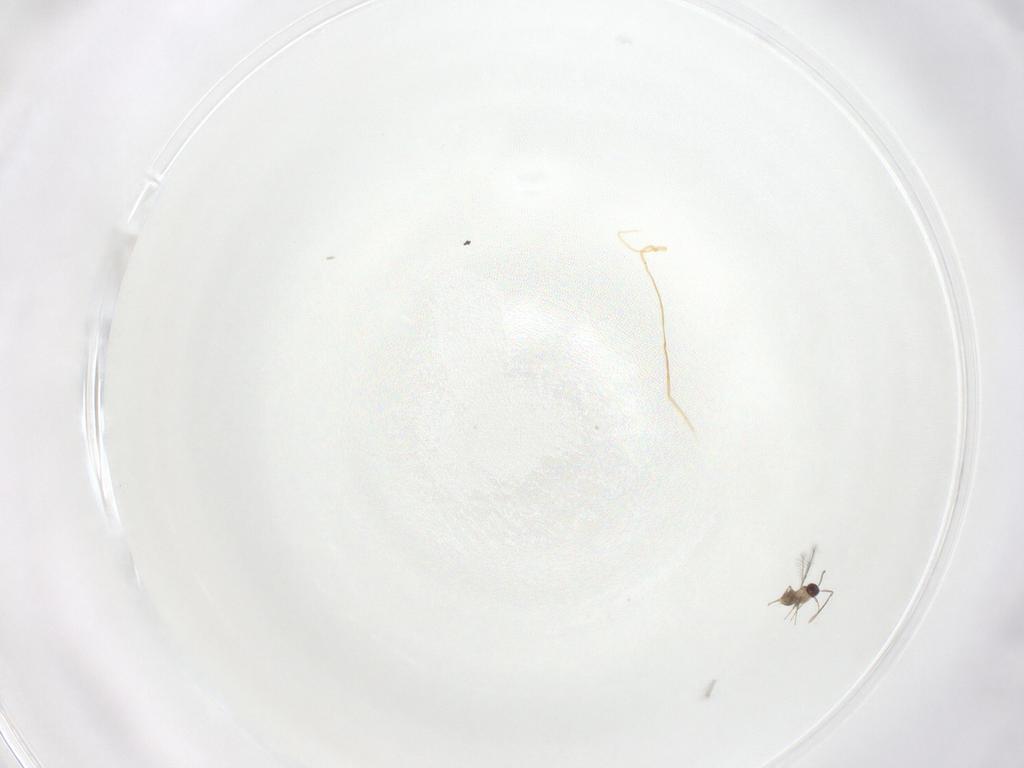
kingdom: Animalia
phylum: Arthropoda
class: Insecta
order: Hymenoptera
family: Mymaridae
